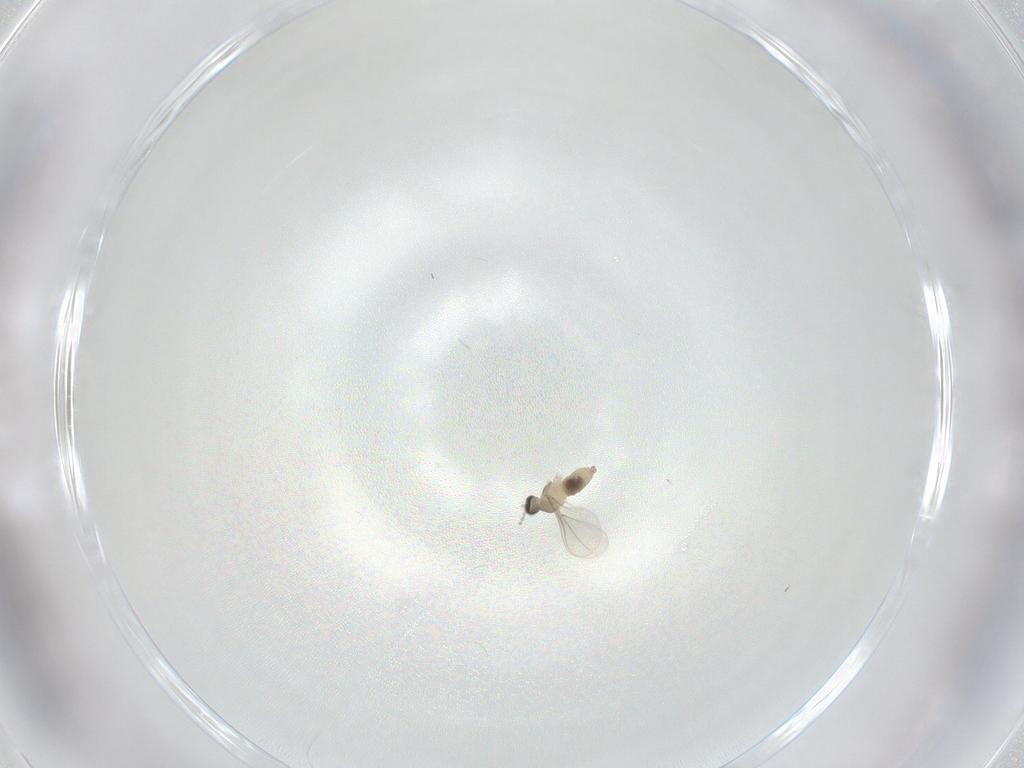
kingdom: Animalia
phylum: Arthropoda
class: Insecta
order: Diptera
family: Cecidomyiidae
